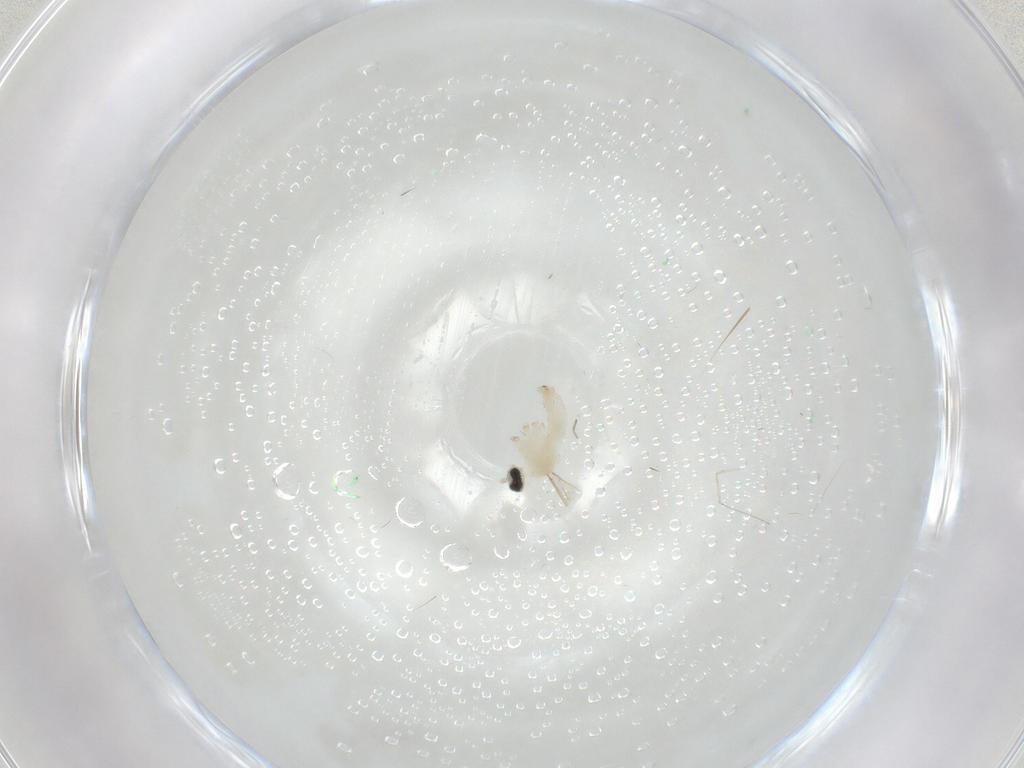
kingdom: Animalia
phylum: Arthropoda
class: Insecta
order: Diptera
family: Cecidomyiidae
